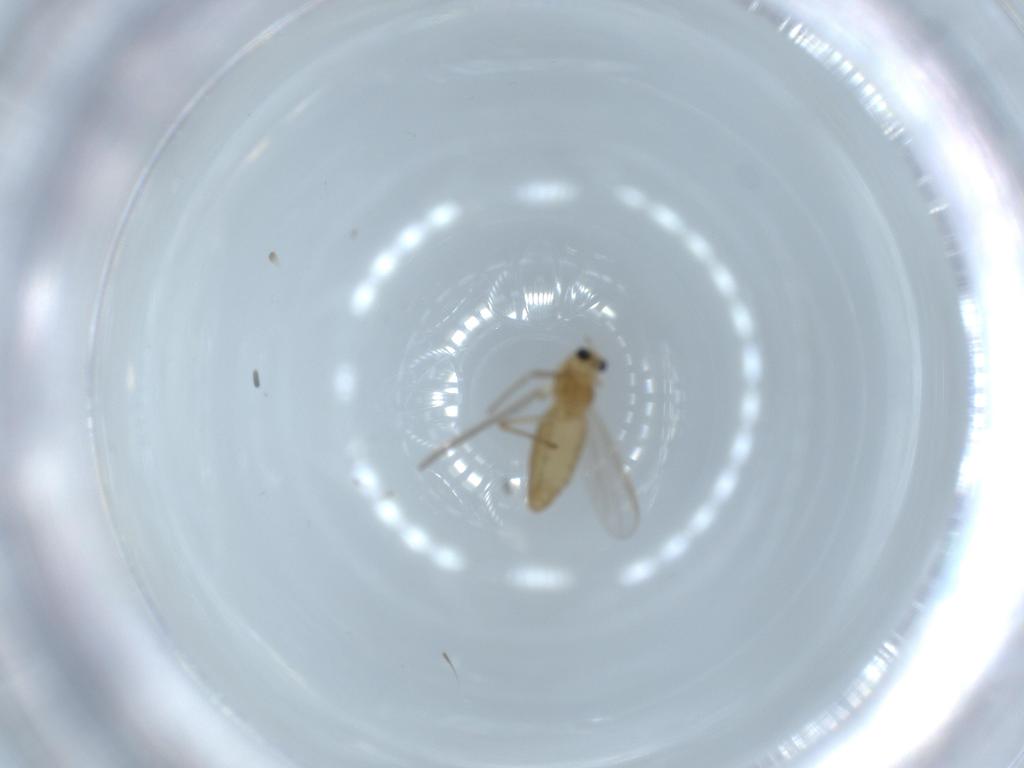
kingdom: Animalia
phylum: Arthropoda
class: Insecta
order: Diptera
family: Chironomidae
